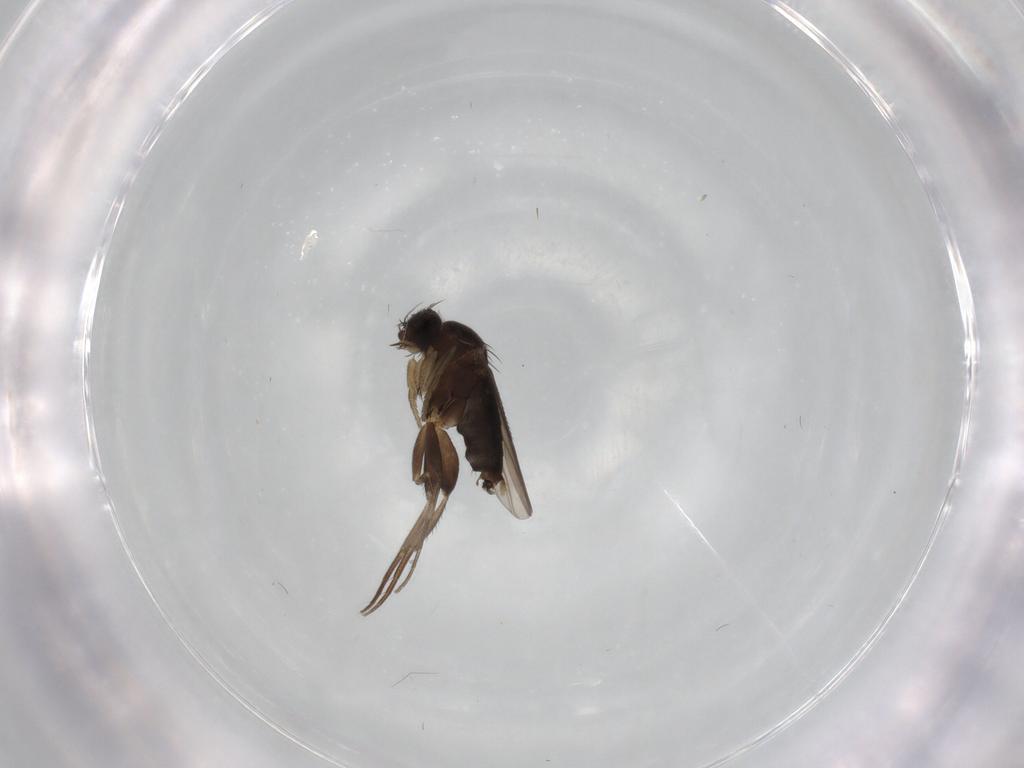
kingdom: Animalia
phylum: Arthropoda
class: Insecta
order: Diptera
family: Phoridae
